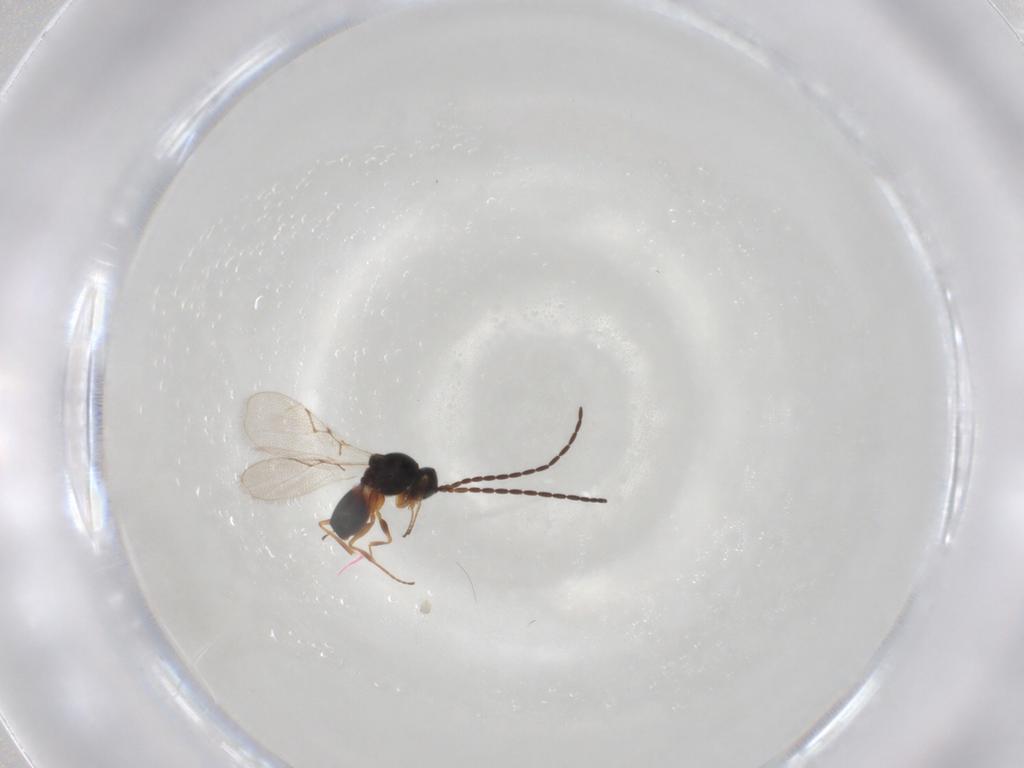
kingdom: Animalia
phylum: Arthropoda
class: Insecta
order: Hymenoptera
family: Figitidae
